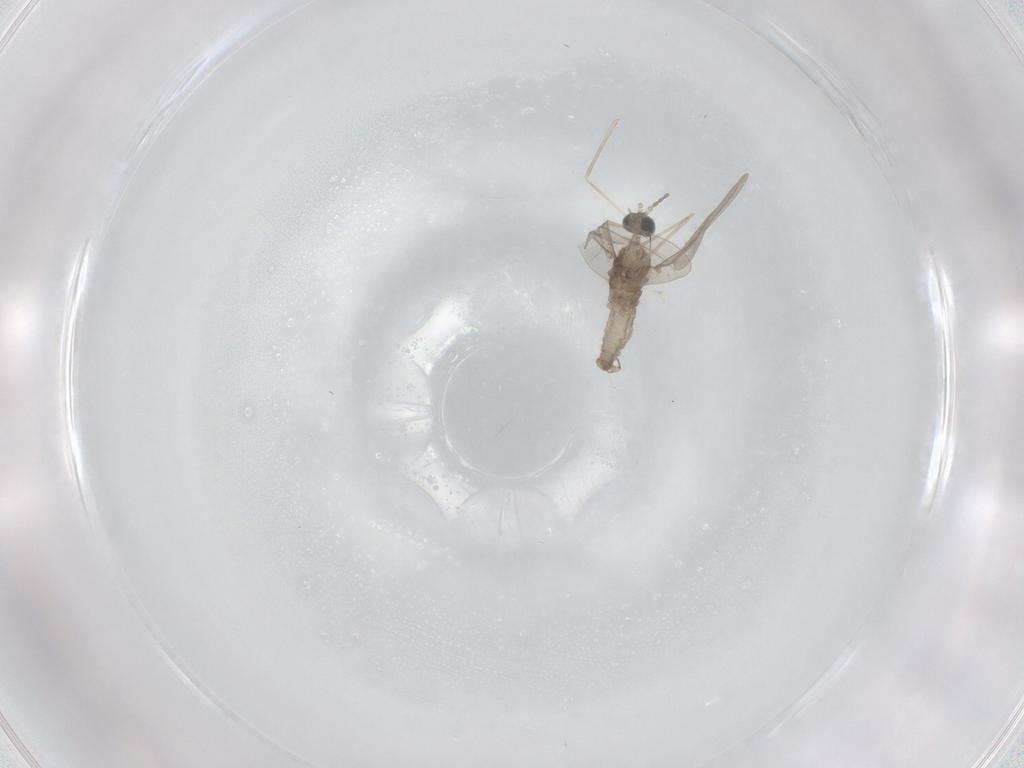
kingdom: Animalia
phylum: Arthropoda
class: Insecta
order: Diptera
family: Cecidomyiidae
